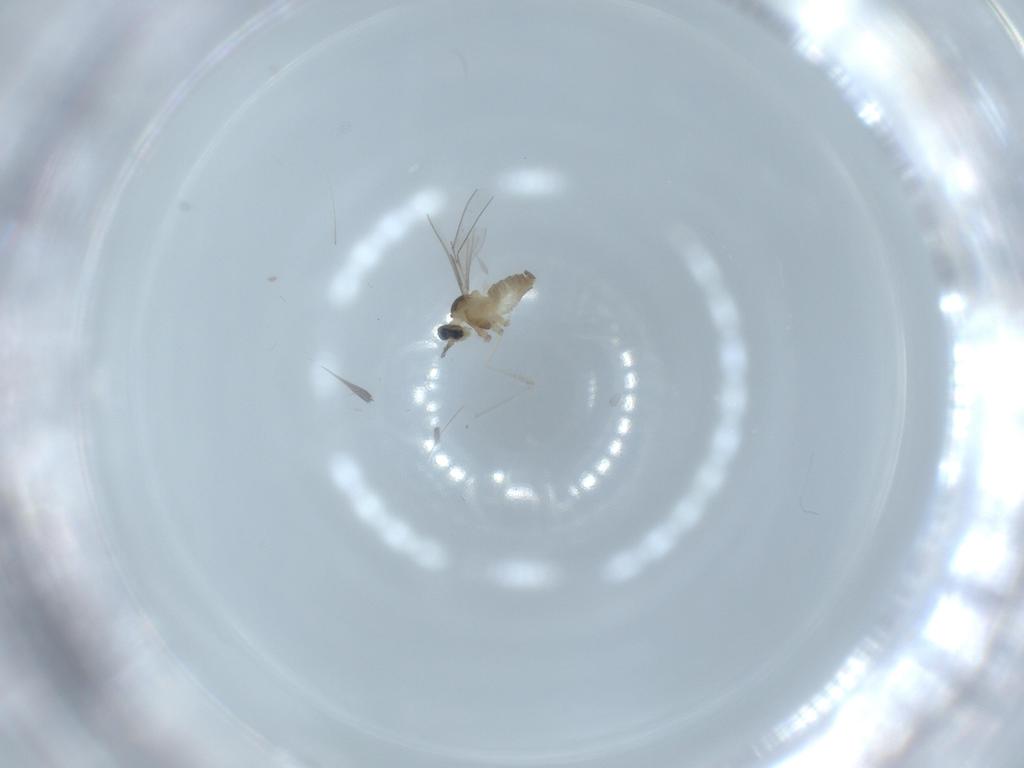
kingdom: Animalia
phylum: Arthropoda
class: Insecta
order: Diptera
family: Cecidomyiidae
